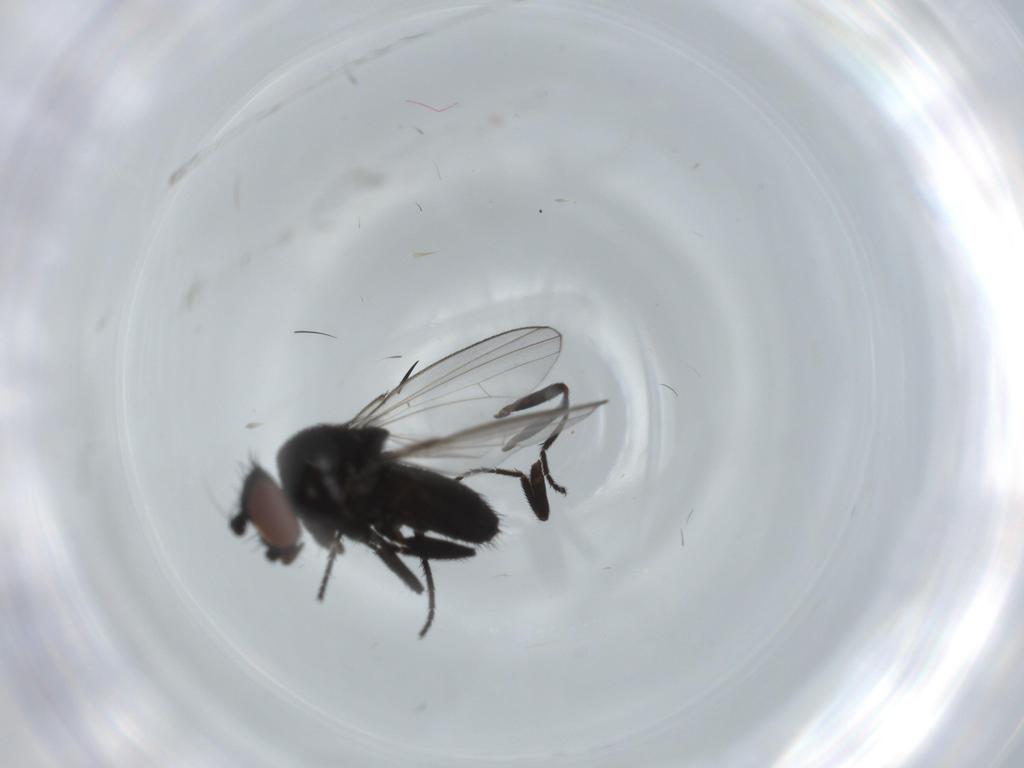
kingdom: Animalia
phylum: Arthropoda
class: Insecta
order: Diptera
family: Milichiidae
